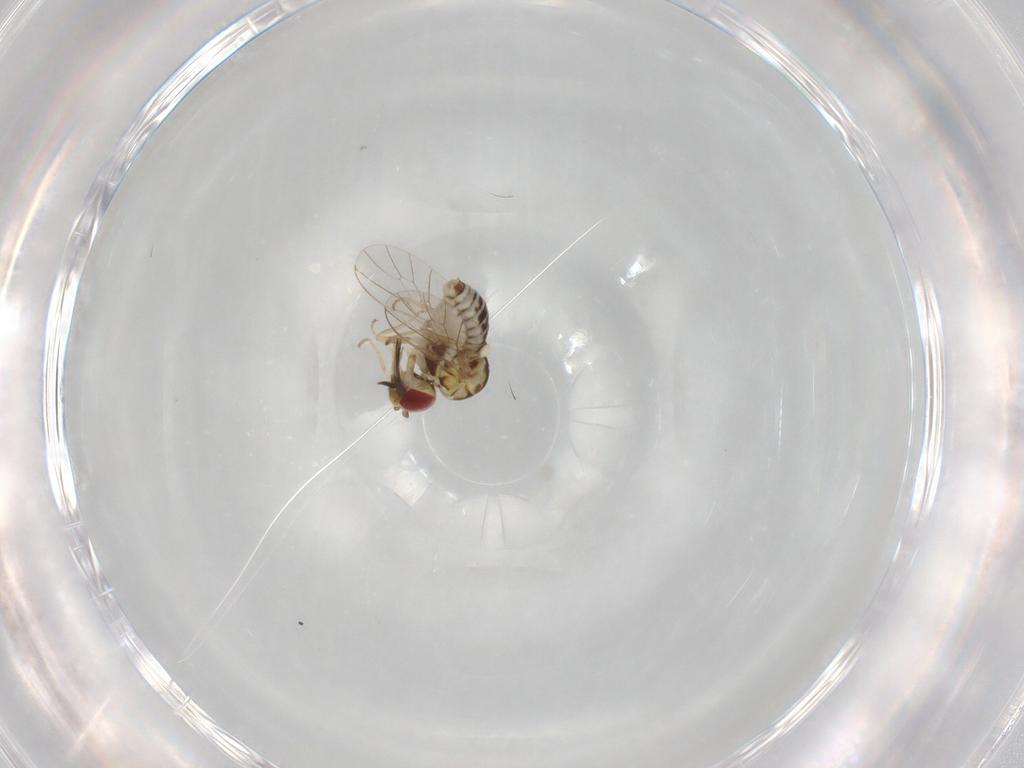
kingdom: Animalia
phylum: Arthropoda
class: Insecta
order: Diptera
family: Bombyliidae
